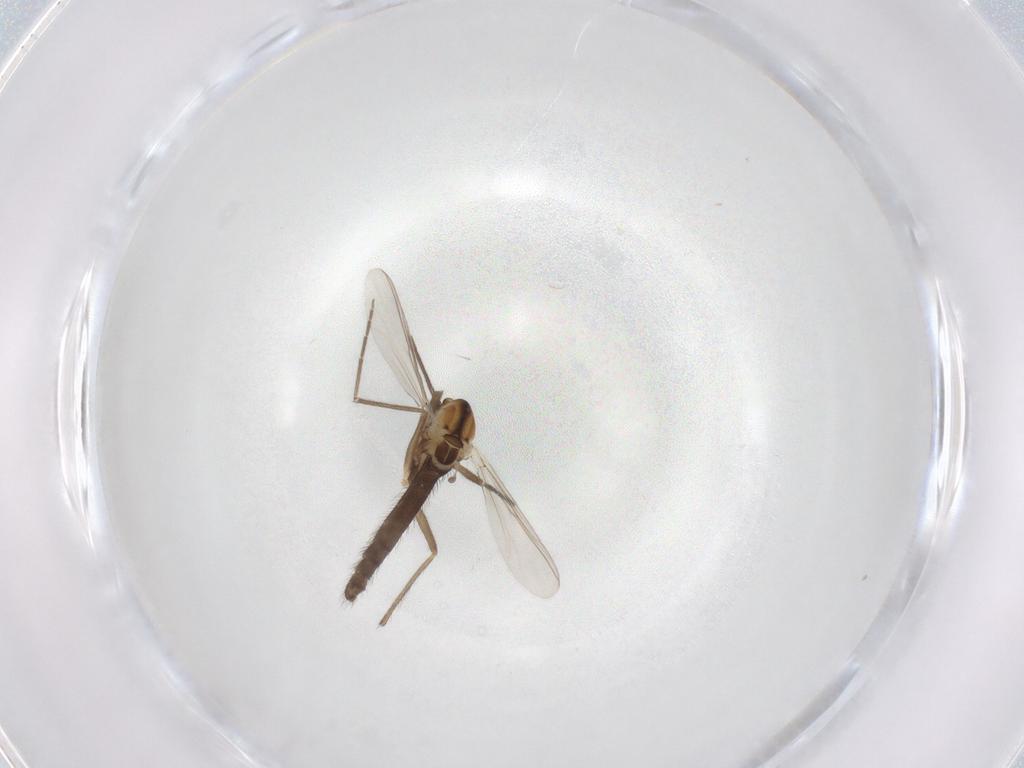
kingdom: Animalia
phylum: Arthropoda
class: Insecta
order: Diptera
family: Chironomidae
